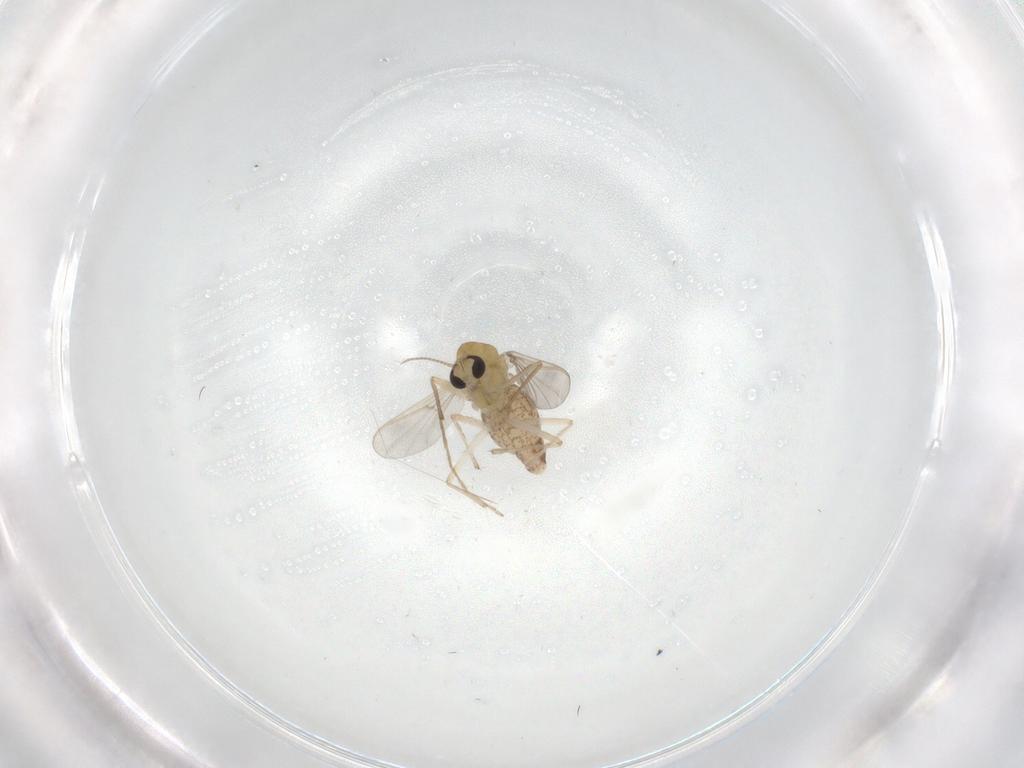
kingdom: Animalia
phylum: Arthropoda
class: Insecta
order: Diptera
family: Chironomidae
